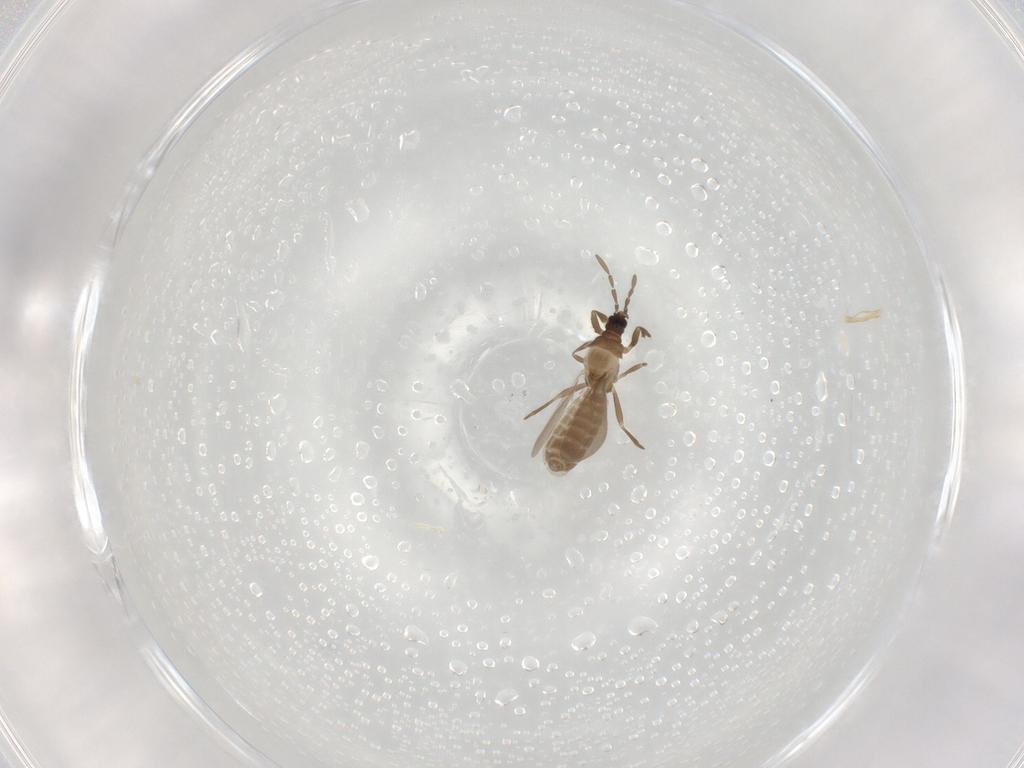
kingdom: Animalia
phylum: Arthropoda
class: Insecta
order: Hemiptera
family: Enicocephalidae
